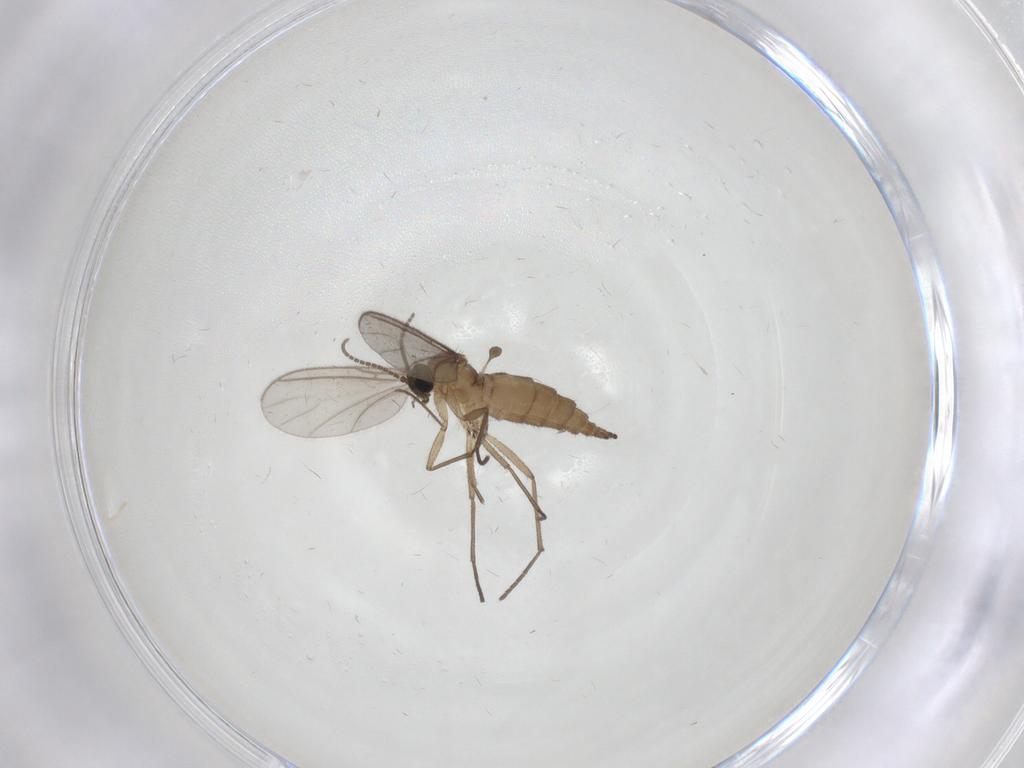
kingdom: Animalia
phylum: Arthropoda
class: Insecta
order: Diptera
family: Sciaridae
